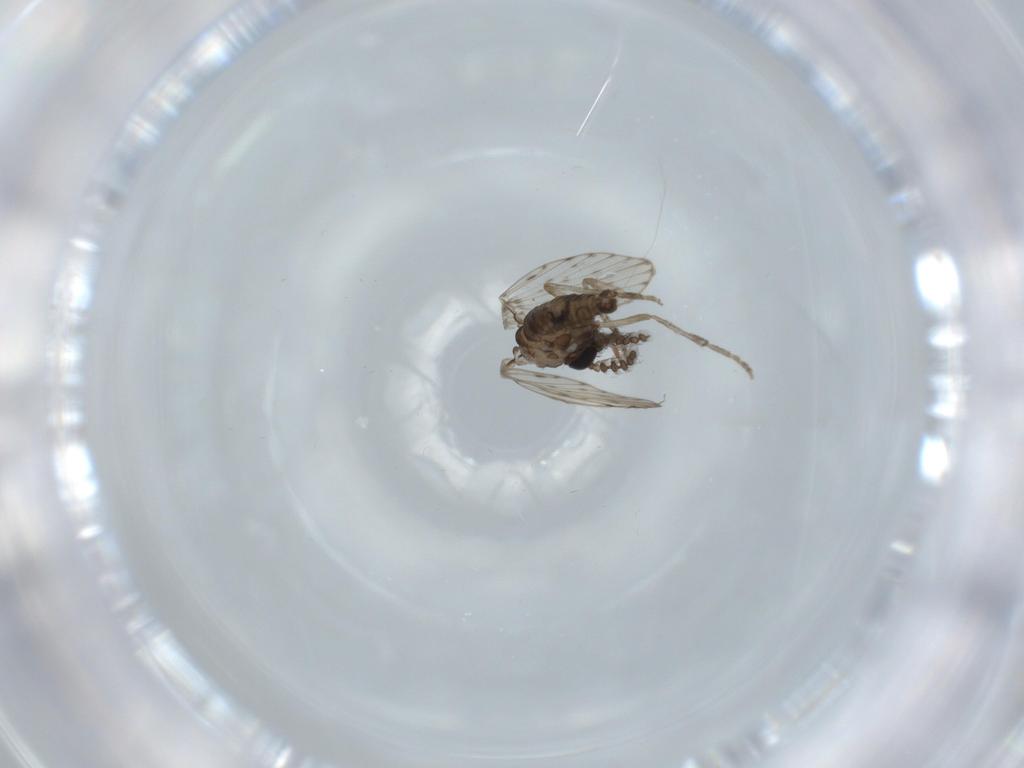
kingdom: Animalia
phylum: Arthropoda
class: Insecta
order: Diptera
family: Psychodidae
